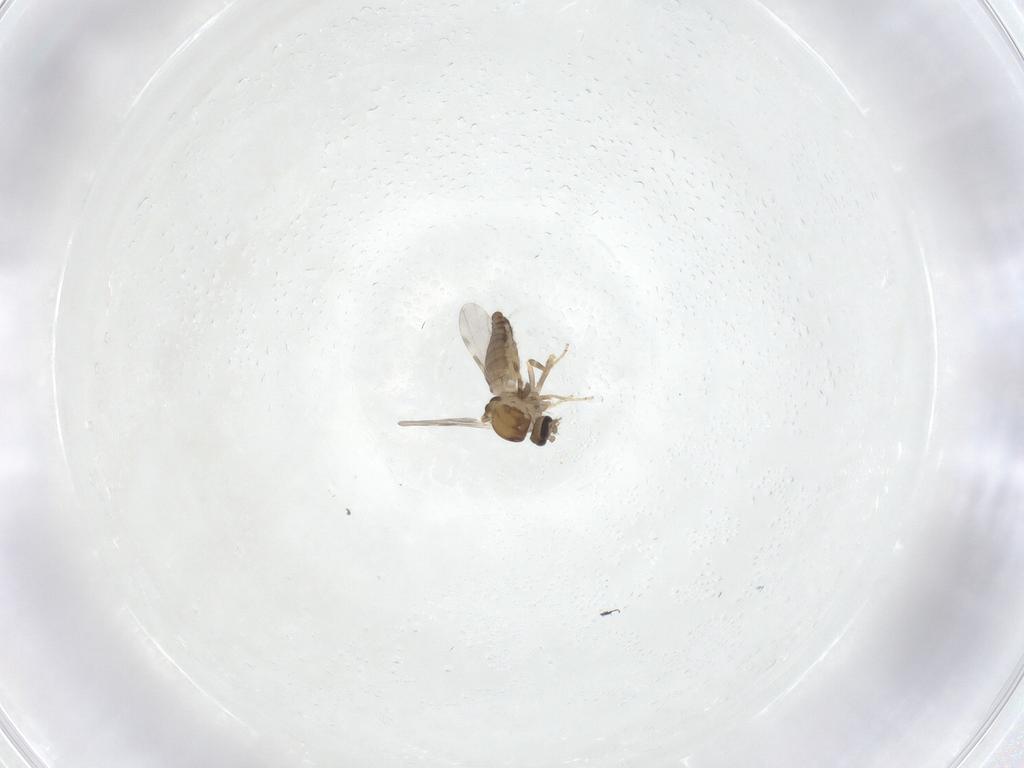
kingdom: Animalia
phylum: Arthropoda
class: Insecta
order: Diptera
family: Ceratopogonidae
